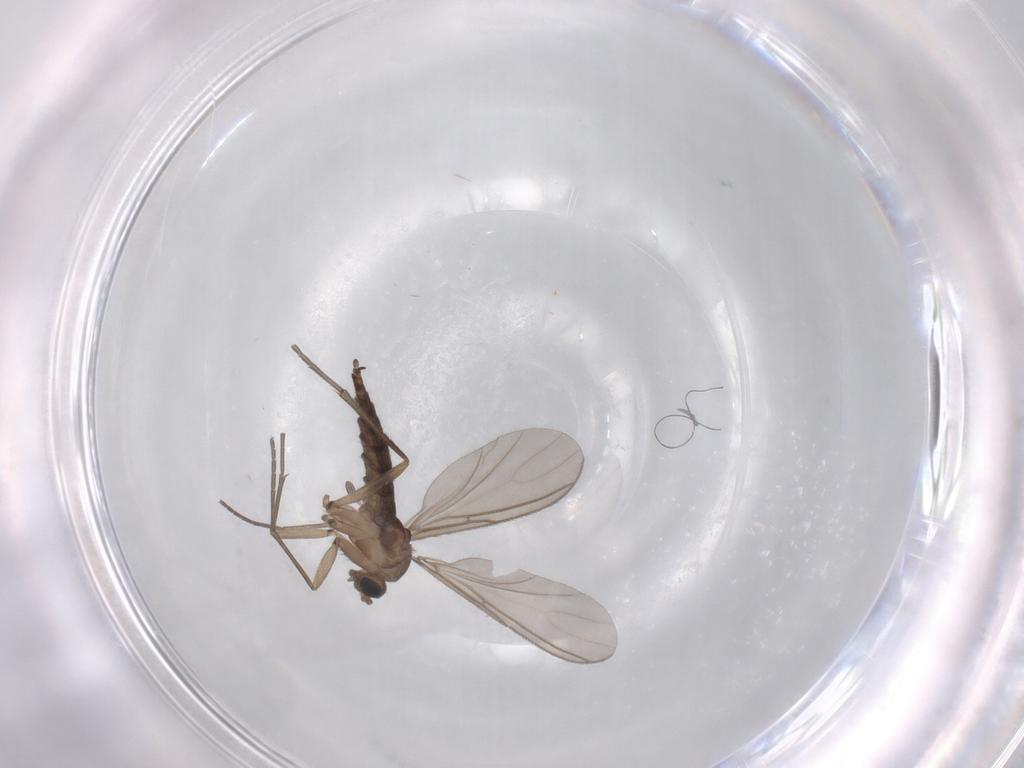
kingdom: Animalia
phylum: Arthropoda
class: Insecta
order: Diptera
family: Sciaridae
